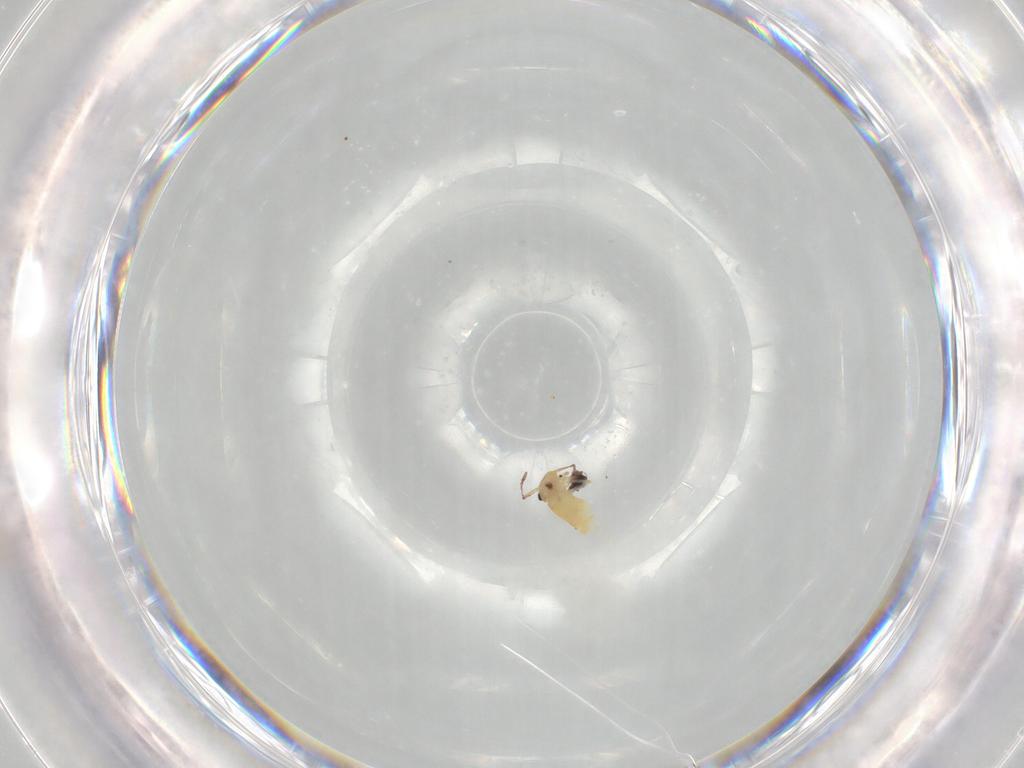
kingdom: Animalia
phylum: Arthropoda
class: Collembola
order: Symphypleona
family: Bourletiellidae
